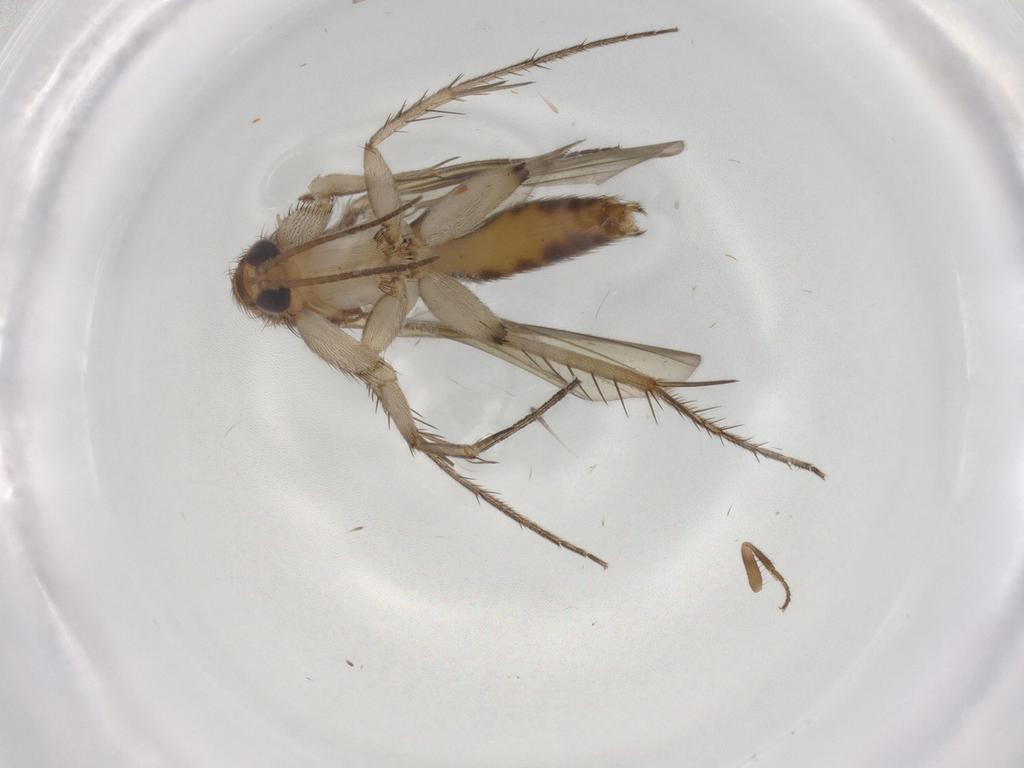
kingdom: Animalia
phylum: Arthropoda
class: Insecta
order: Diptera
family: Mycetophilidae
